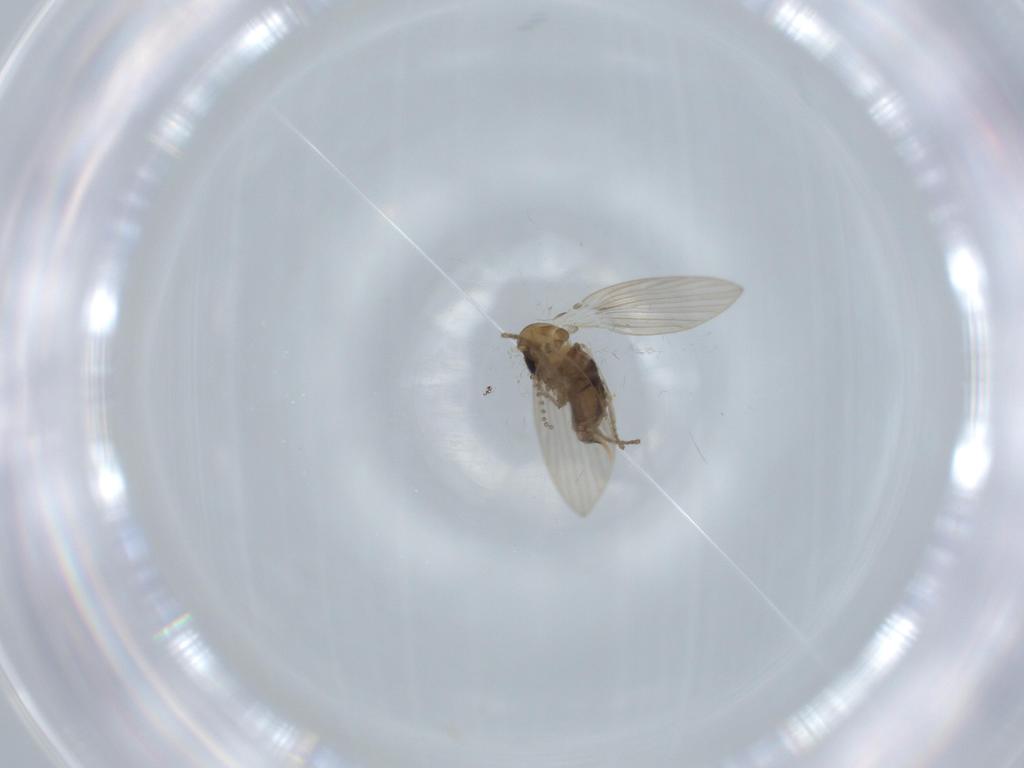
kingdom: Animalia
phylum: Arthropoda
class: Insecta
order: Diptera
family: Psychodidae
